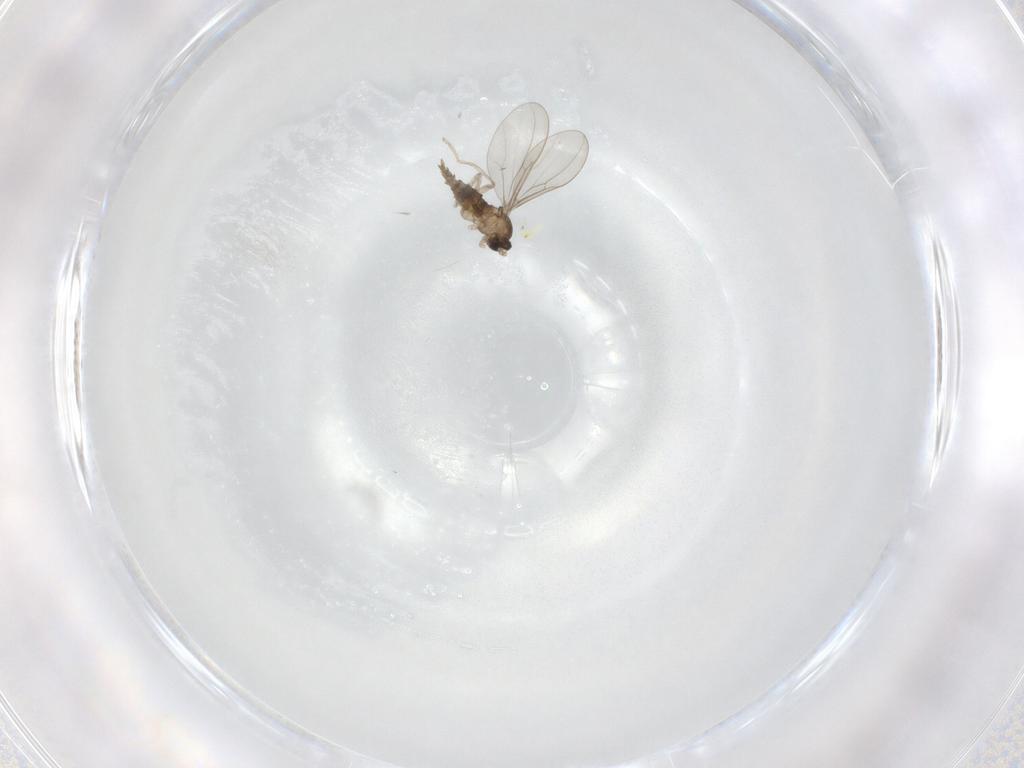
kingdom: Animalia
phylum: Arthropoda
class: Insecta
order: Diptera
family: Cecidomyiidae
